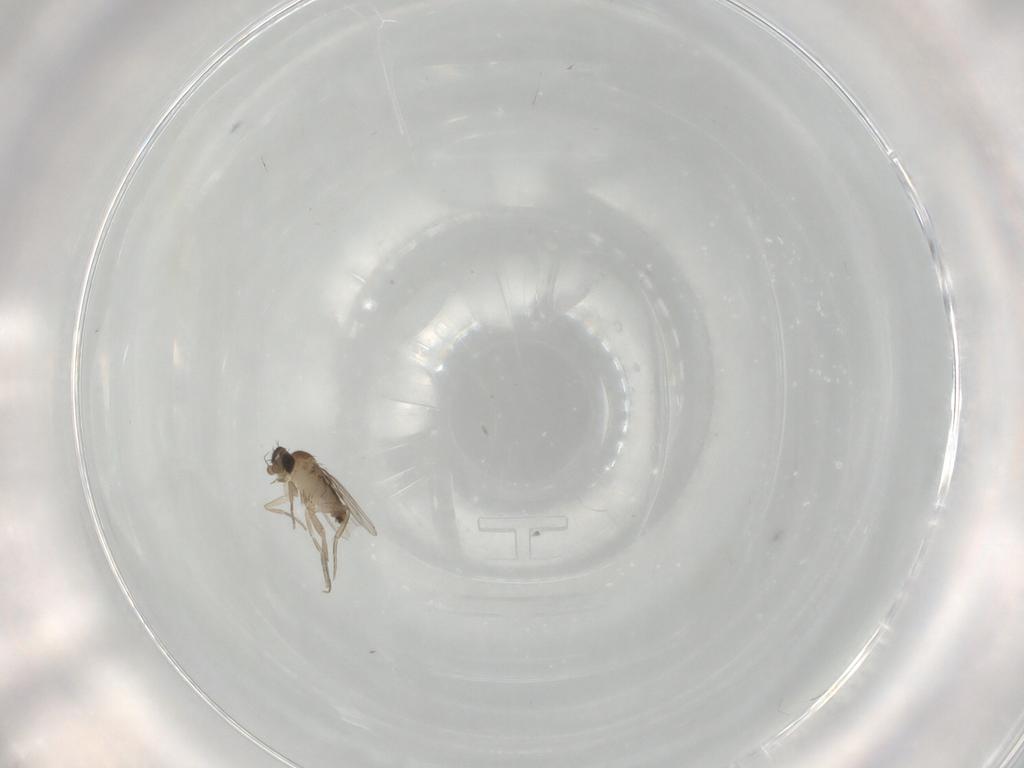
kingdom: Animalia
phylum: Arthropoda
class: Insecta
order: Diptera
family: Phoridae
